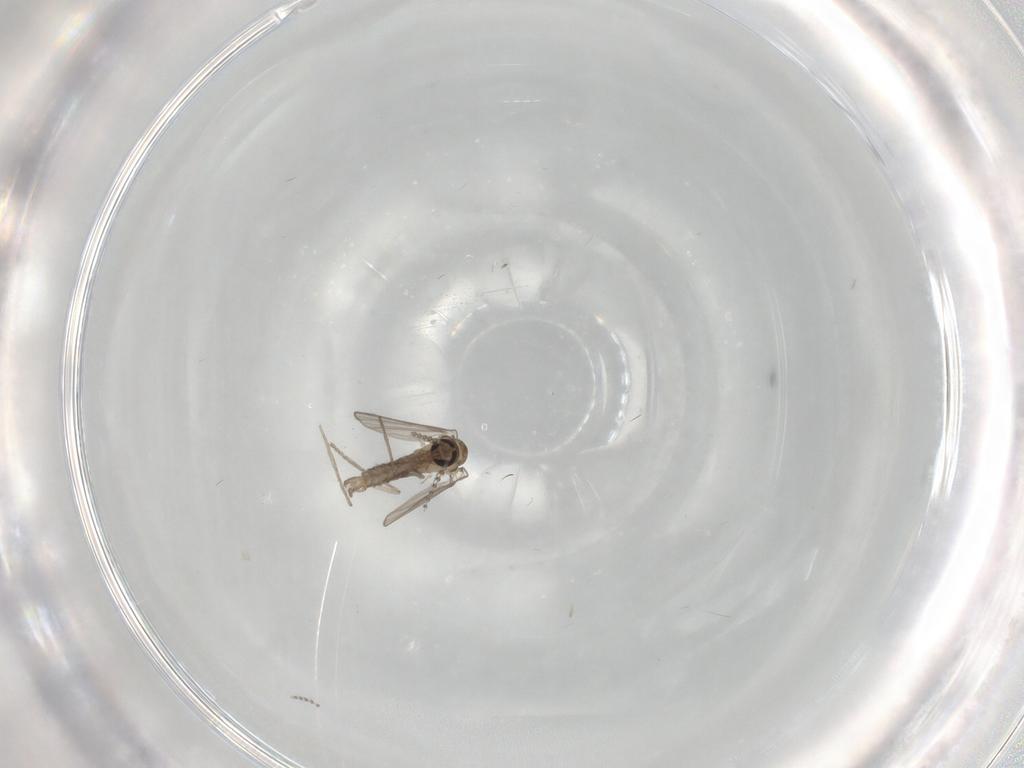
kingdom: Animalia
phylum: Arthropoda
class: Insecta
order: Diptera
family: Psychodidae
